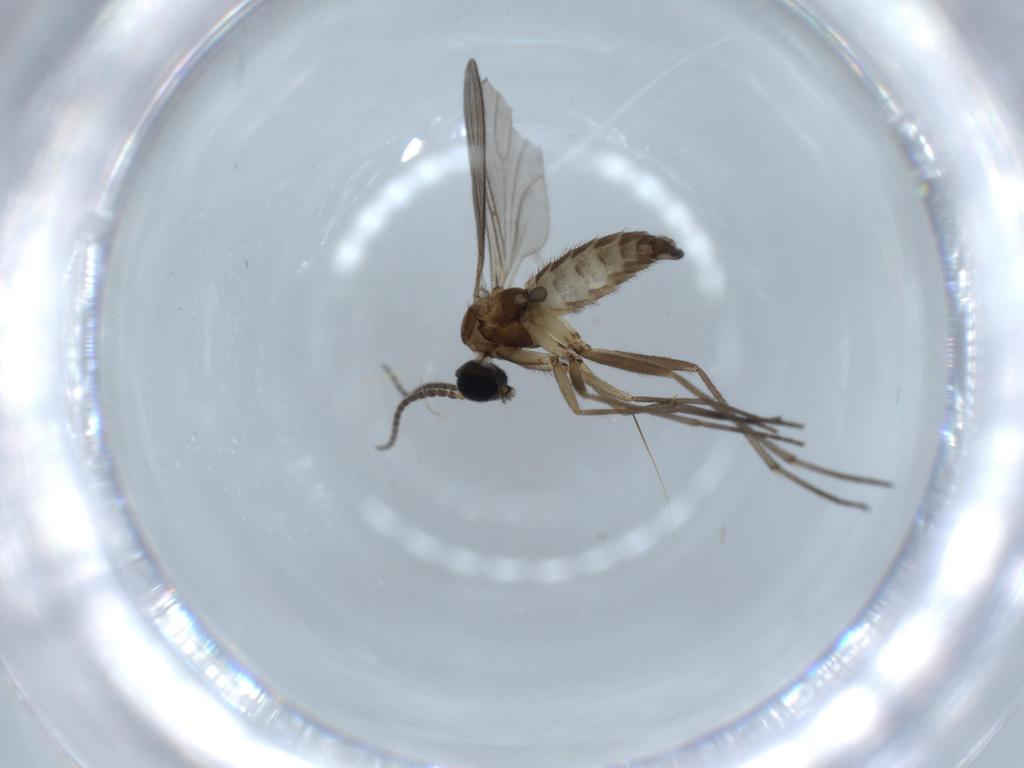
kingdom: Animalia
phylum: Arthropoda
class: Insecta
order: Diptera
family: Sciaridae
